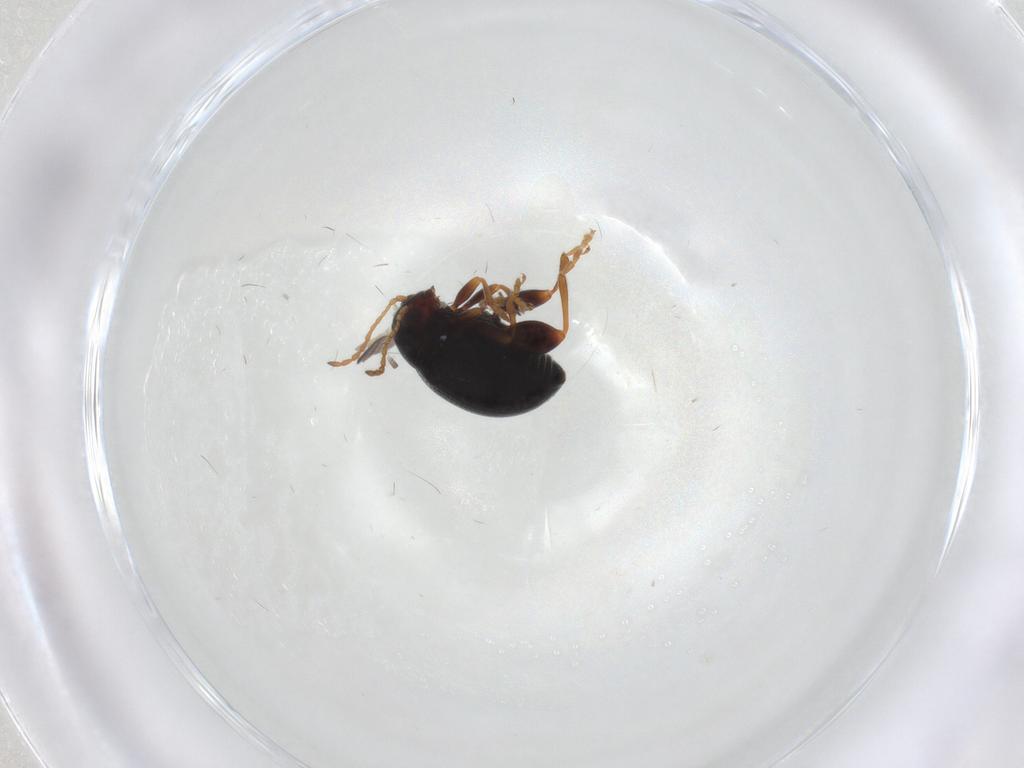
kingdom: Animalia
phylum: Arthropoda
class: Insecta
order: Coleoptera
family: Chrysomelidae
